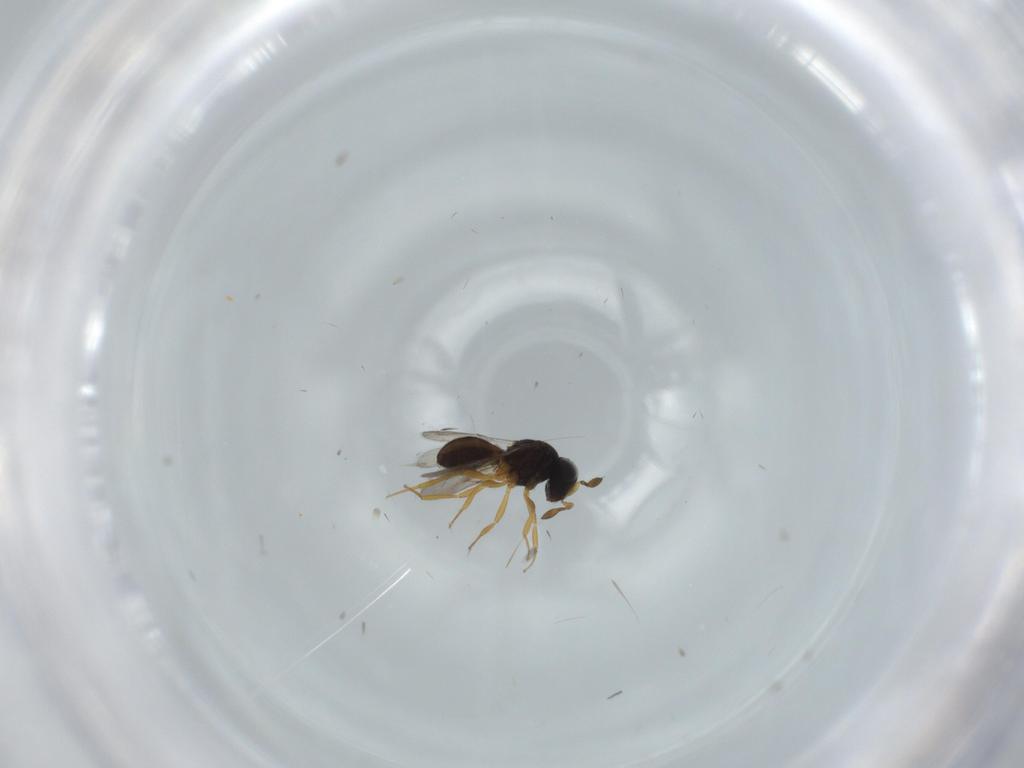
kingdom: Animalia
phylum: Arthropoda
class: Insecta
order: Hymenoptera
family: Scelionidae
